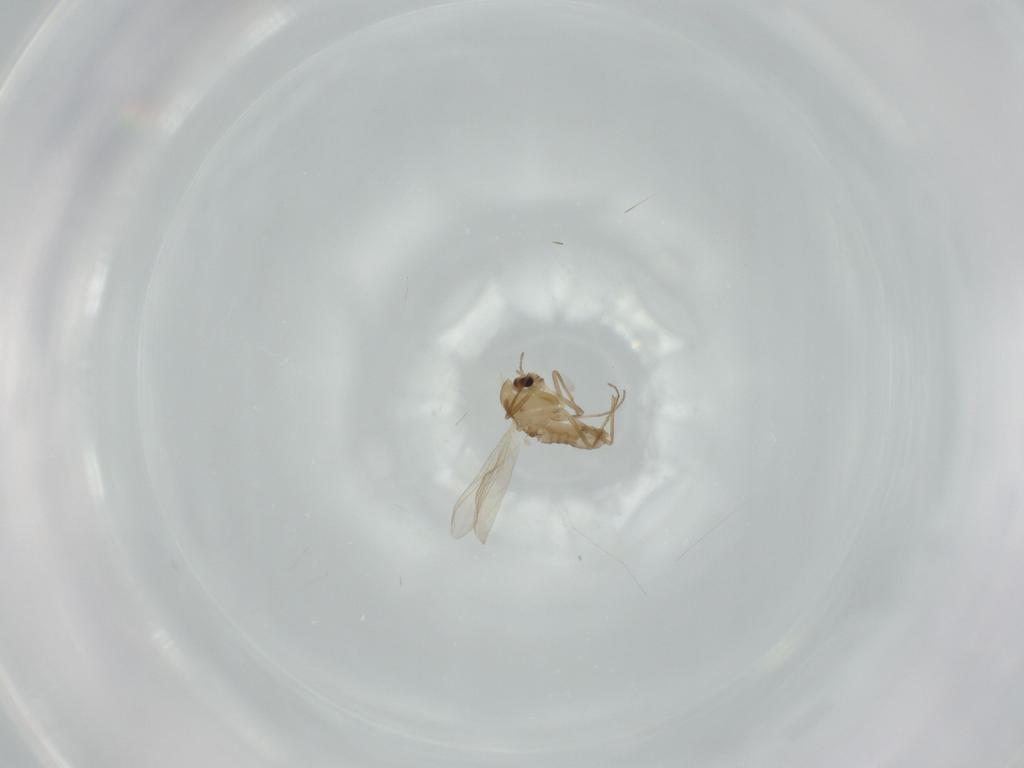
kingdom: Animalia
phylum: Arthropoda
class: Insecta
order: Diptera
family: Chironomidae
